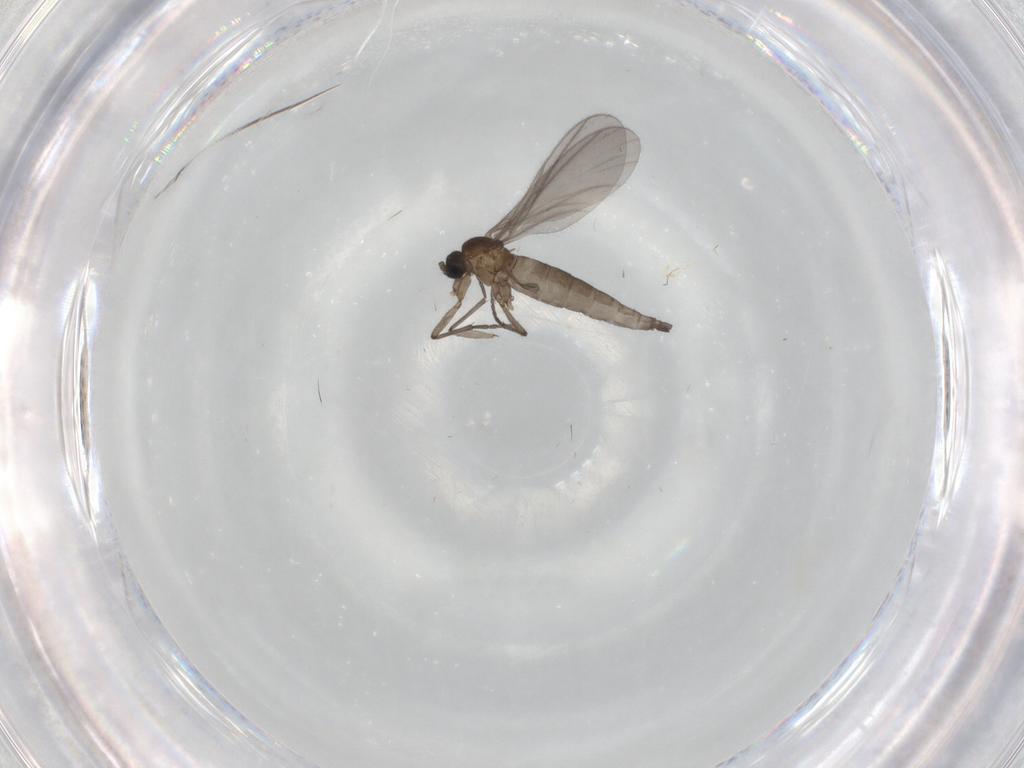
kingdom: Animalia
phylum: Arthropoda
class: Insecta
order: Diptera
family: Sciaridae
